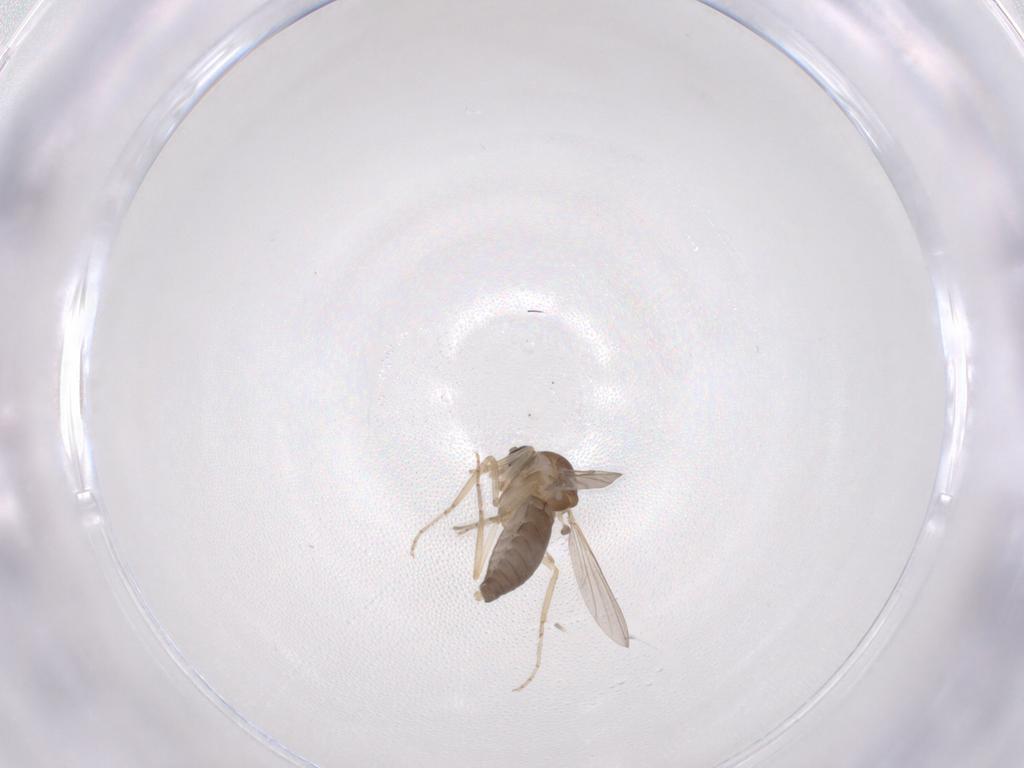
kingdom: Animalia
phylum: Arthropoda
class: Insecta
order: Diptera
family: Ceratopogonidae
